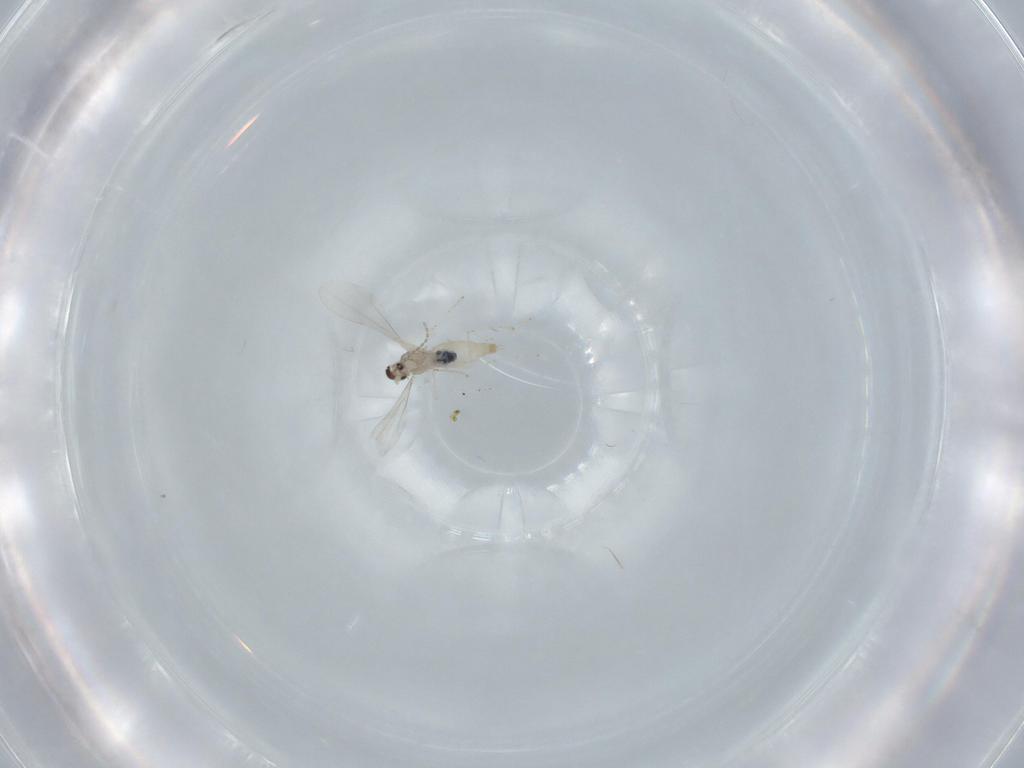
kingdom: Animalia
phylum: Arthropoda
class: Insecta
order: Diptera
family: Cecidomyiidae
